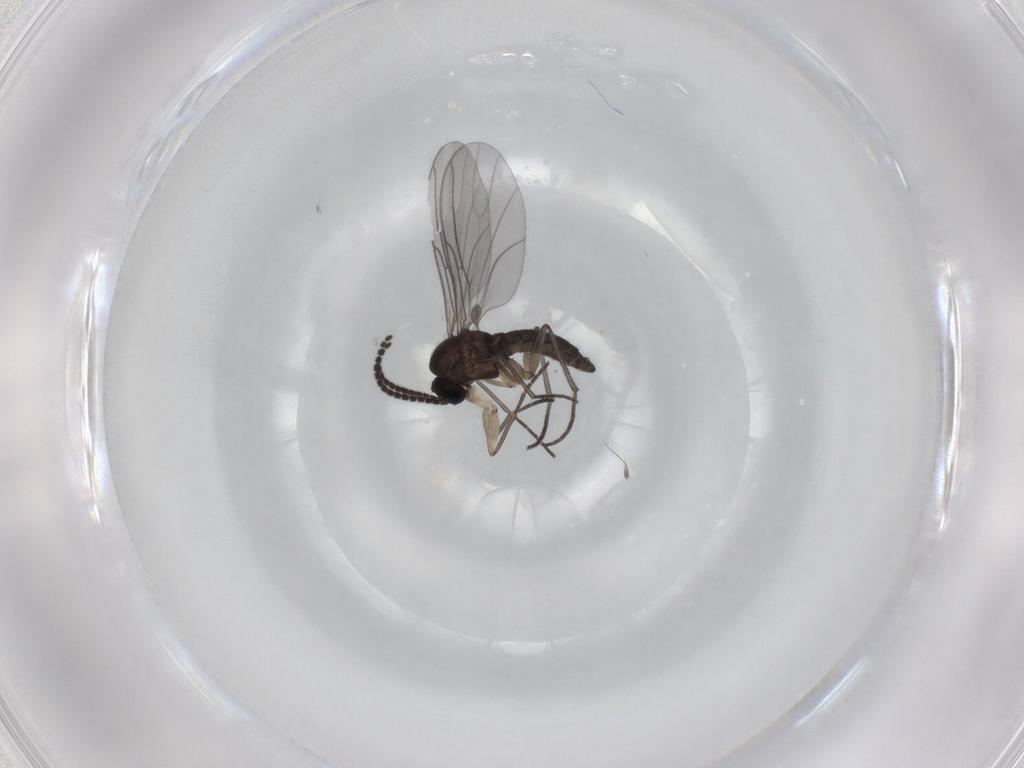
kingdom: Animalia
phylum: Arthropoda
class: Insecta
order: Diptera
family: Sciaridae
